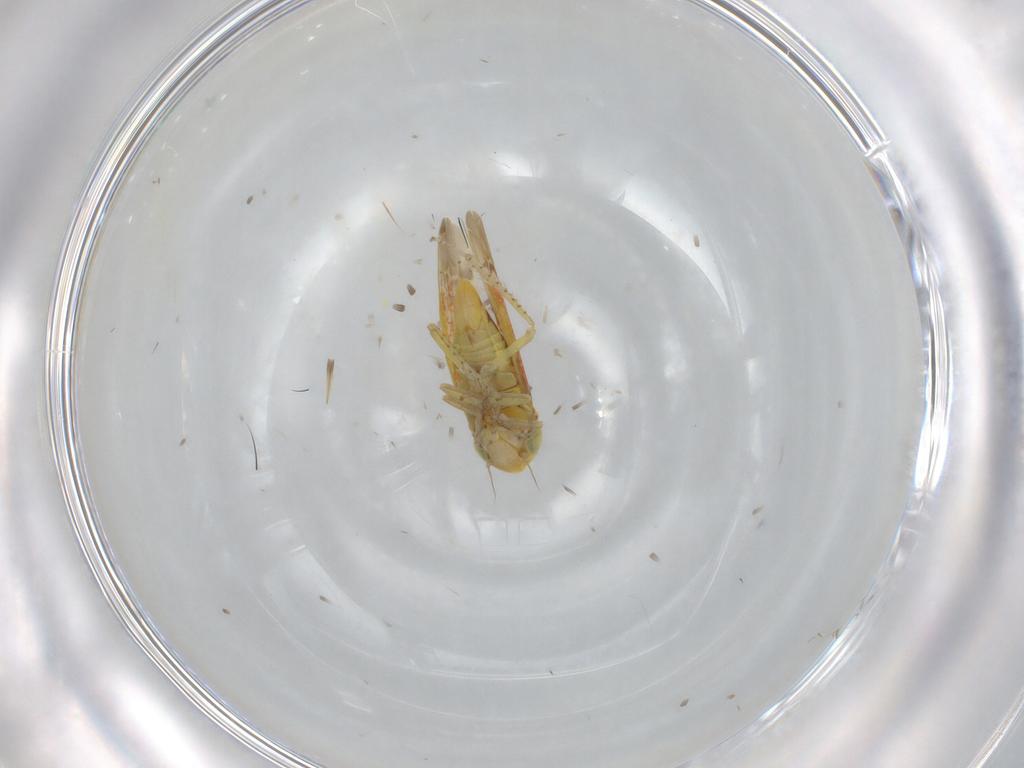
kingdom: Animalia
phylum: Arthropoda
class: Insecta
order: Hemiptera
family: Cicadellidae
